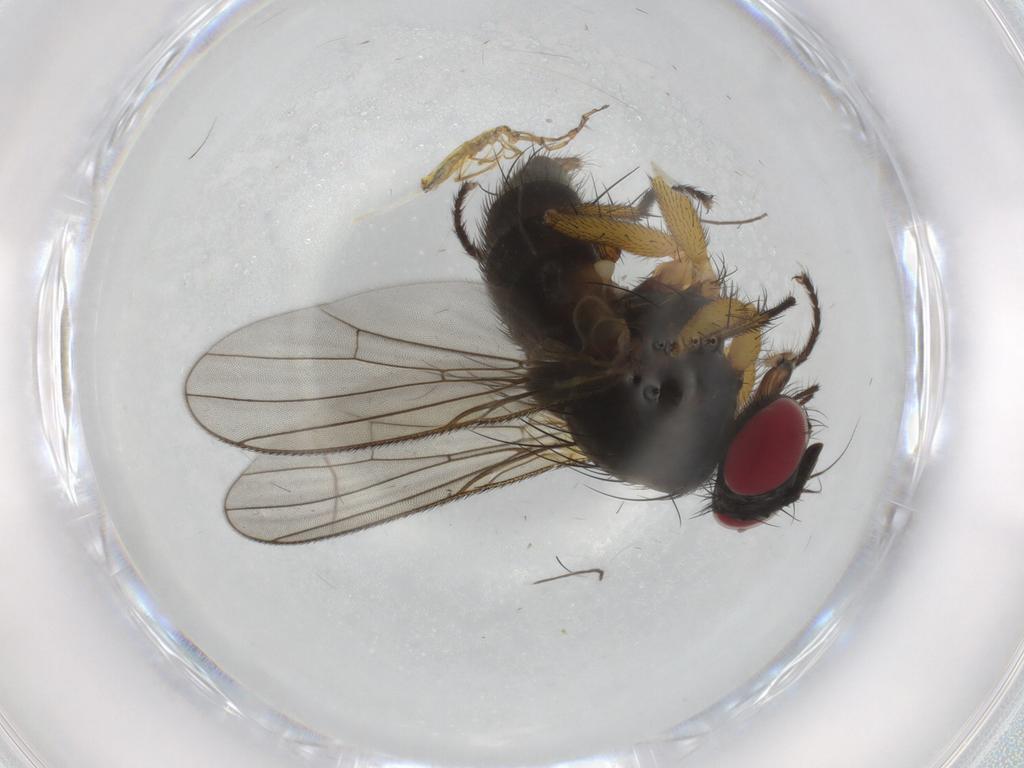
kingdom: Animalia
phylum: Arthropoda
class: Insecta
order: Diptera
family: Muscidae
